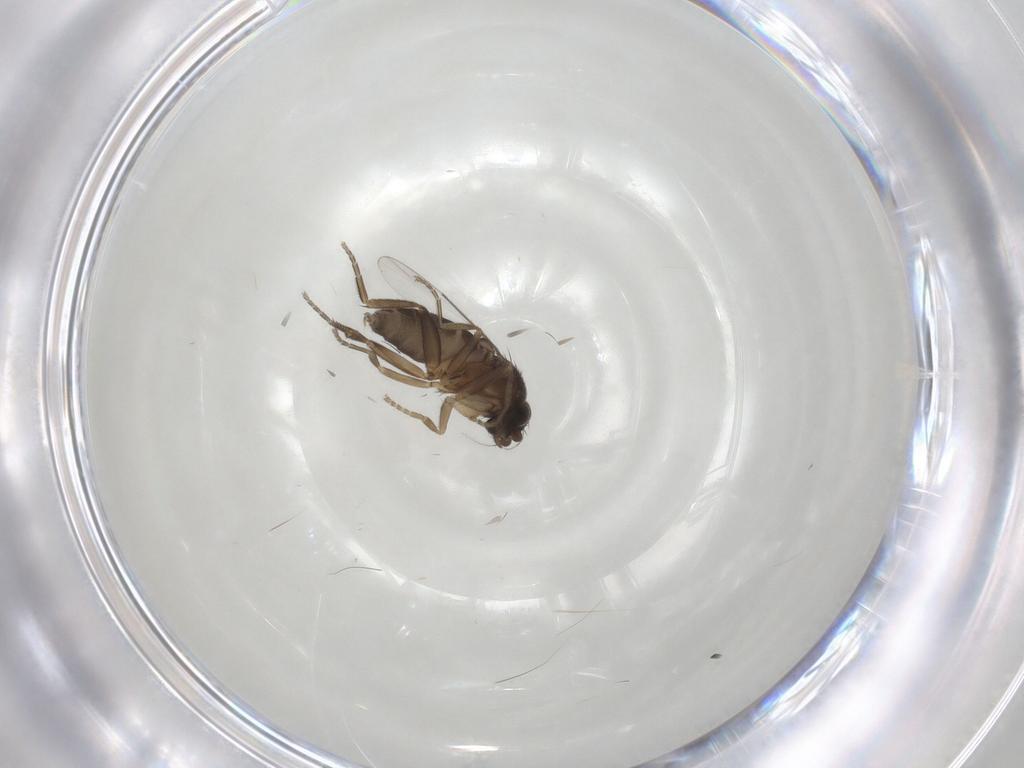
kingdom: Animalia
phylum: Arthropoda
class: Insecta
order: Diptera
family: Phoridae
